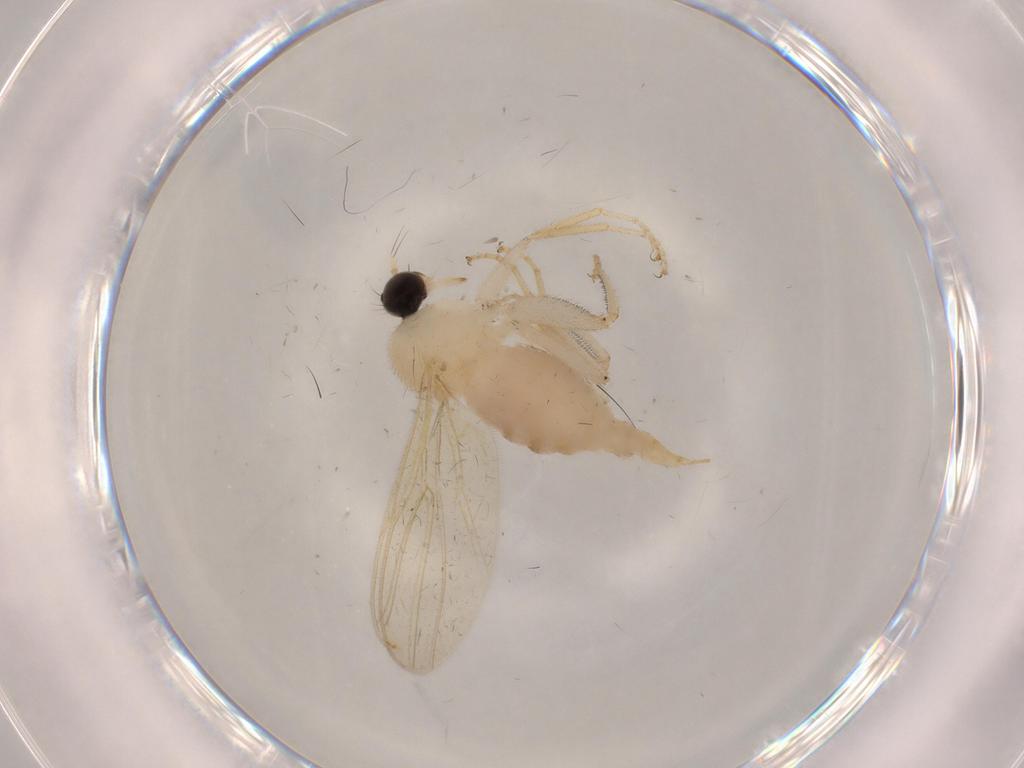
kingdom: Animalia
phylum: Arthropoda
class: Insecta
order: Diptera
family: Hybotidae
